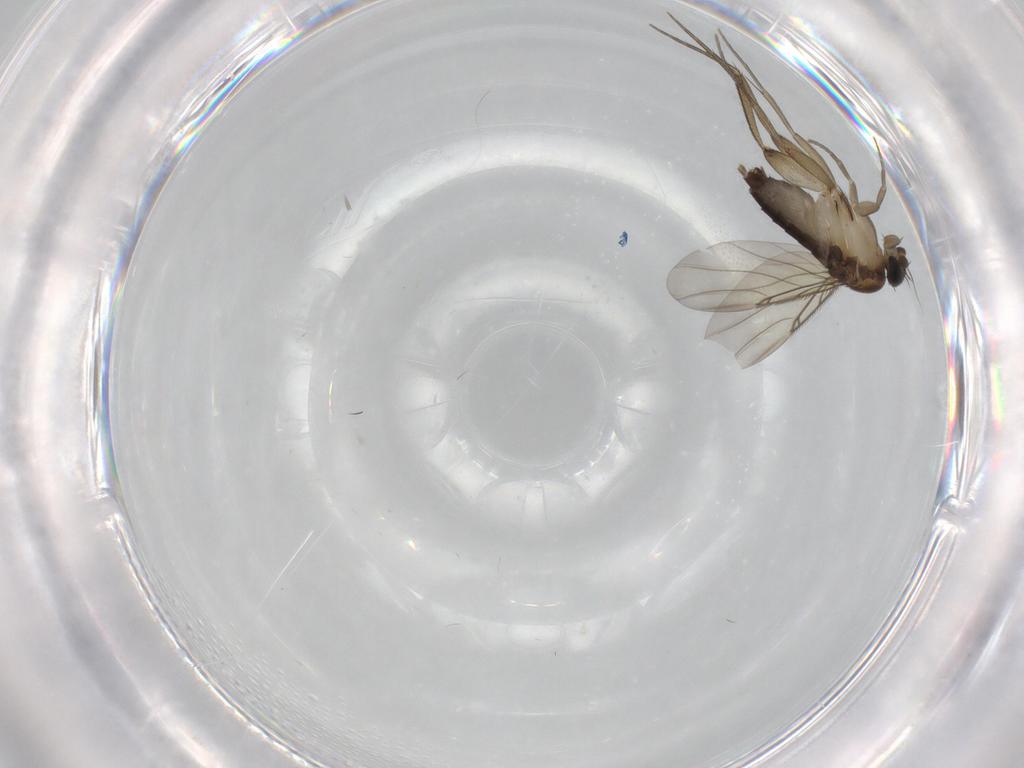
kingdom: Animalia
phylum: Arthropoda
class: Insecta
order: Diptera
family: Phoridae
